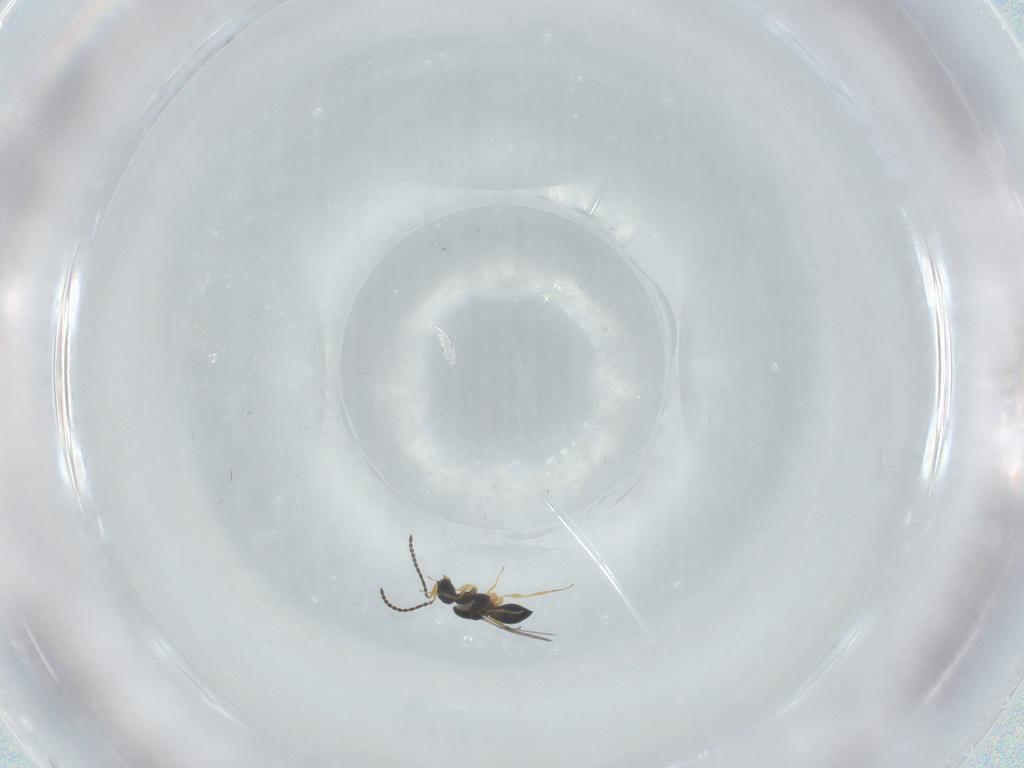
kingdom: Animalia
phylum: Arthropoda
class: Insecta
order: Hymenoptera
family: Scelionidae
